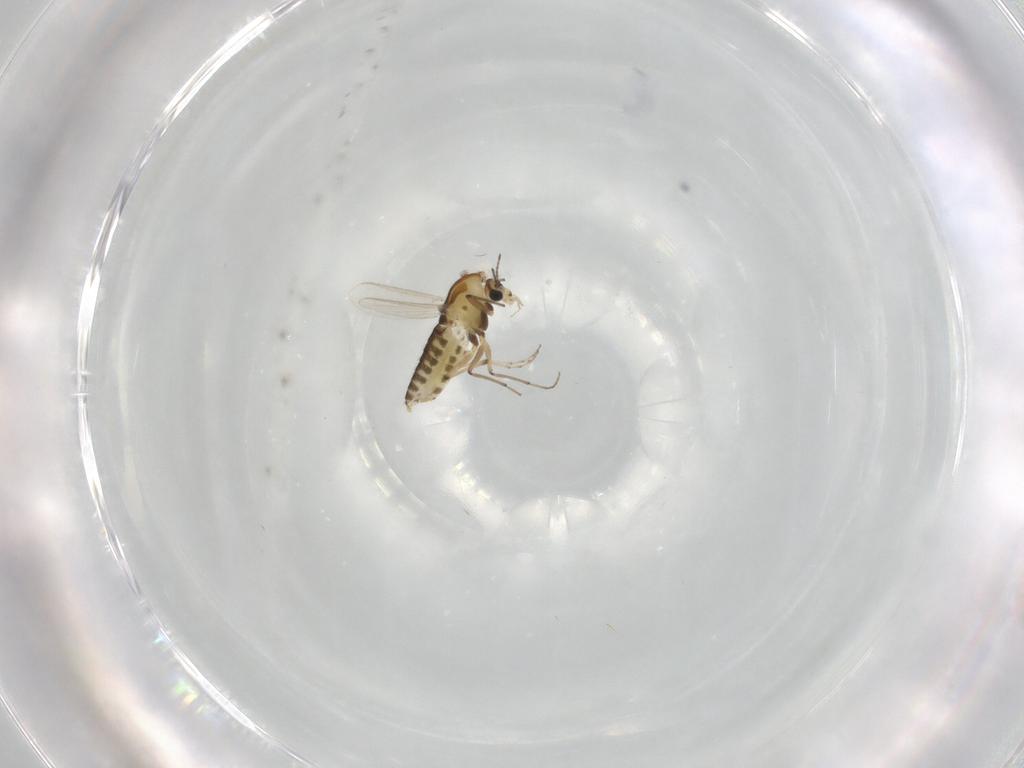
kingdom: Animalia
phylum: Arthropoda
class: Insecta
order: Diptera
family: Chironomidae
